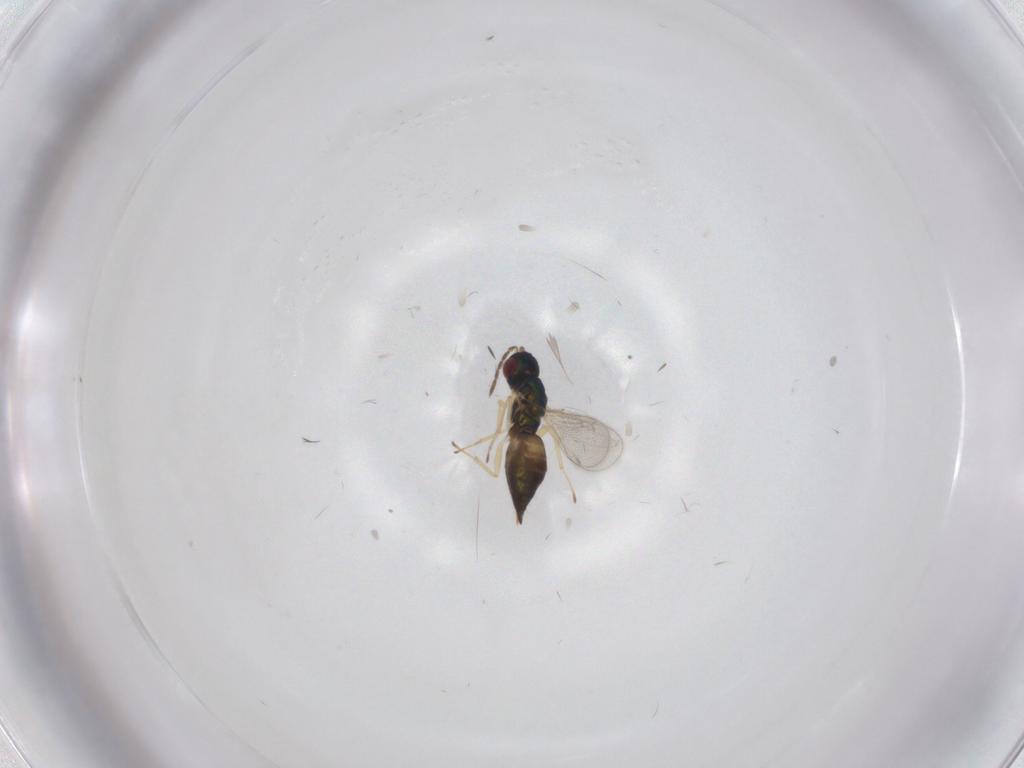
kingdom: Animalia
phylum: Arthropoda
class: Insecta
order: Hymenoptera
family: Eulophidae
